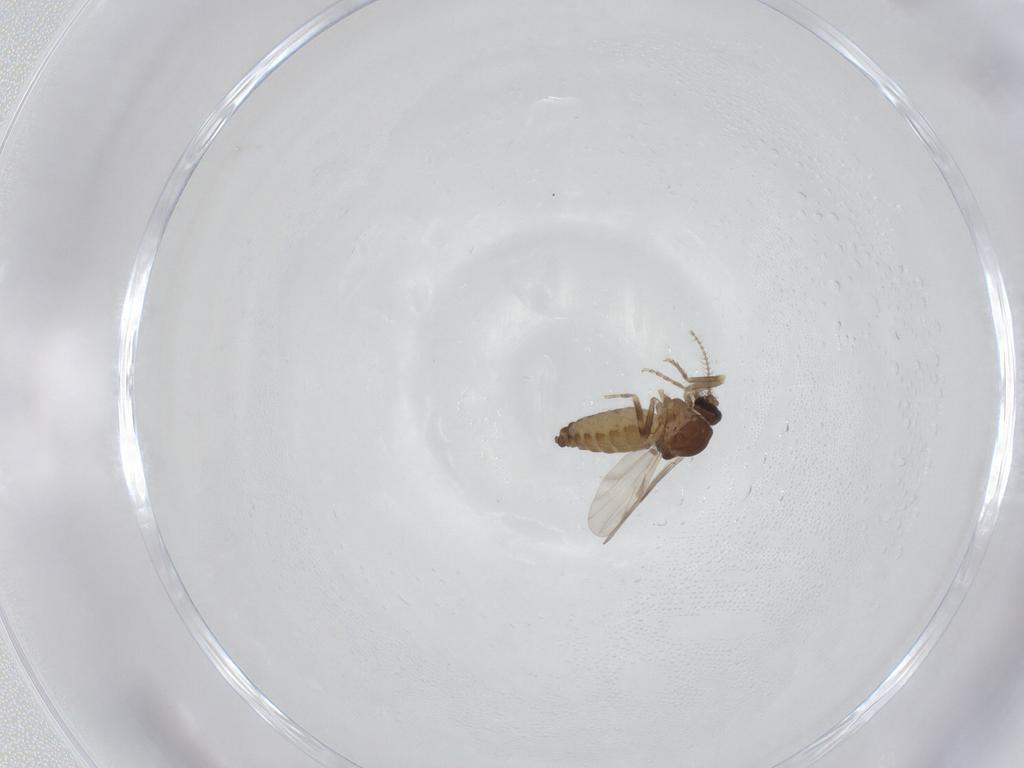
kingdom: Animalia
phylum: Arthropoda
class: Insecta
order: Diptera
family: Ceratopogonidae
